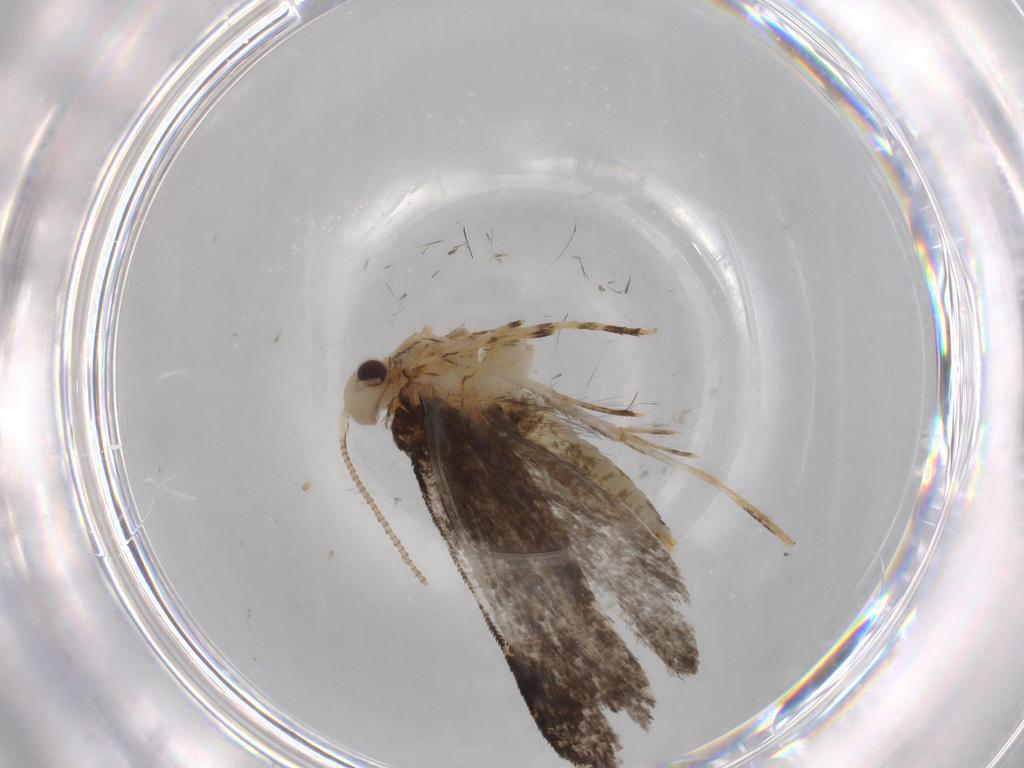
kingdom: Animalia
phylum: Arthropoda
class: Insecta
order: Lepidoptera
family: Tineidae
